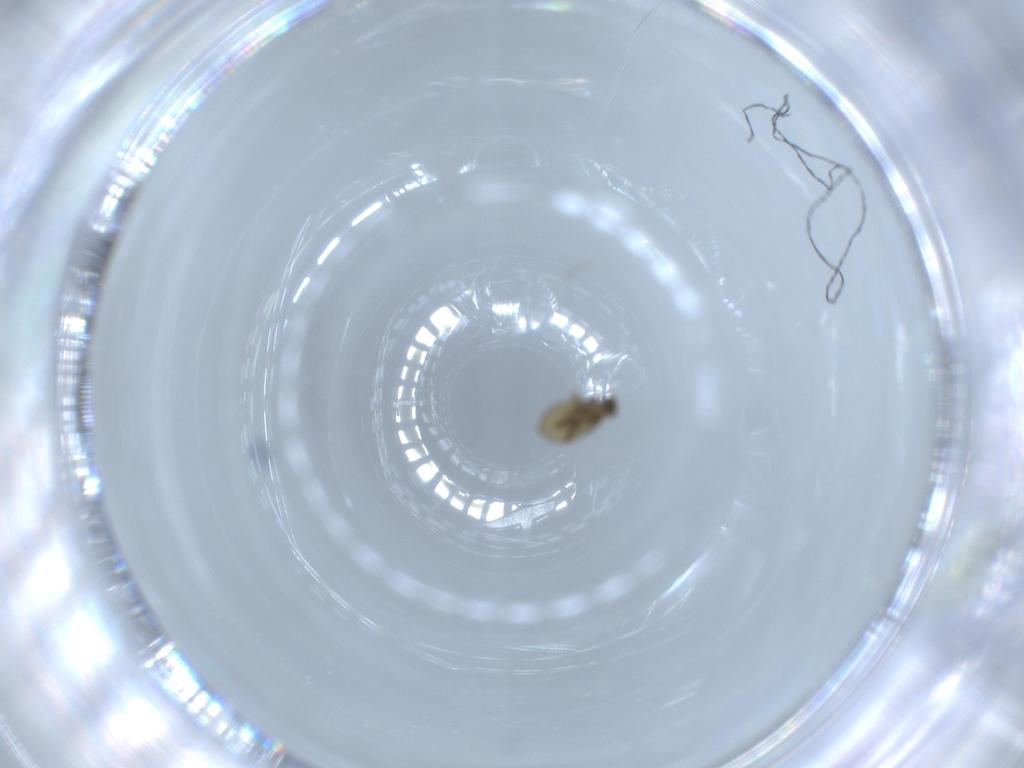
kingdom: Animalia
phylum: Arthropoda
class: Insecta
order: Diptera
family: Phoridae
